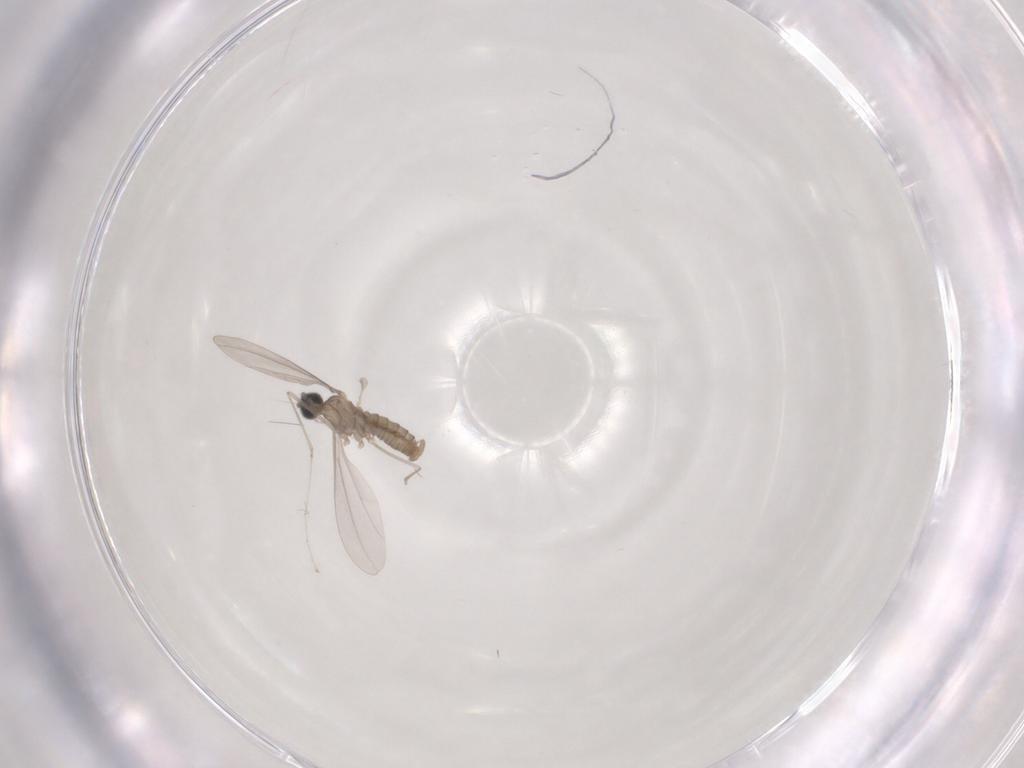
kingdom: Animalia
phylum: Arthropoda
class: Insecta
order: Diptera
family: Cecidomyiidae
